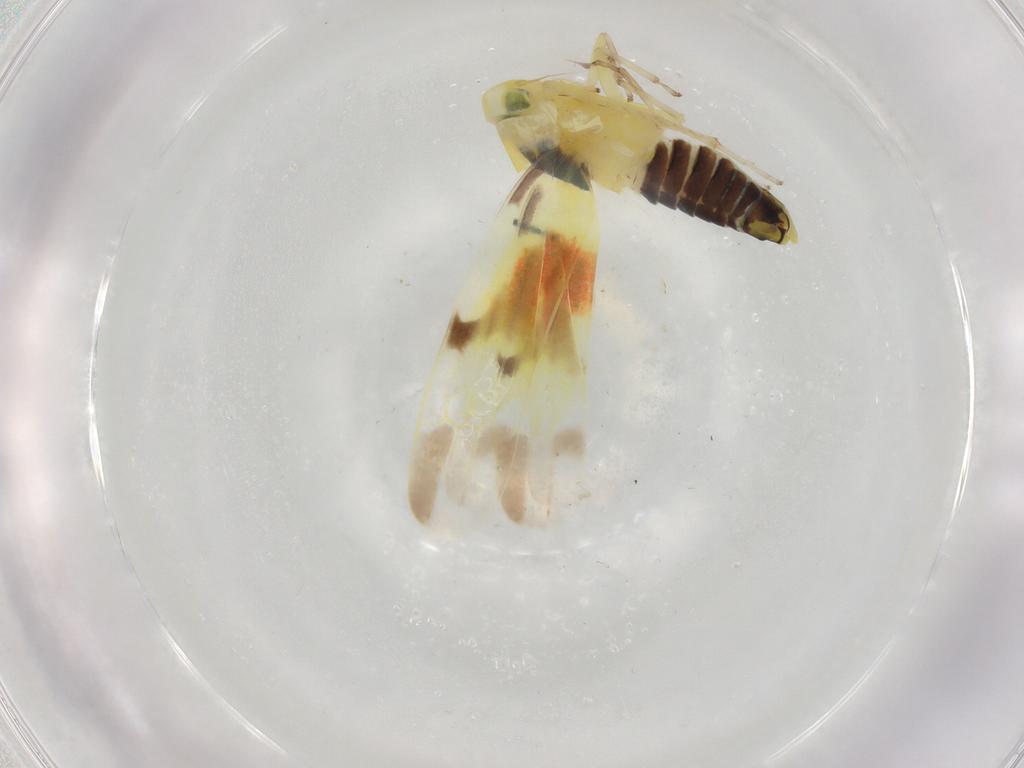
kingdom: Animalia
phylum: Arthropoda
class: Insecta
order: Hemiptera
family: Cicadellidae
